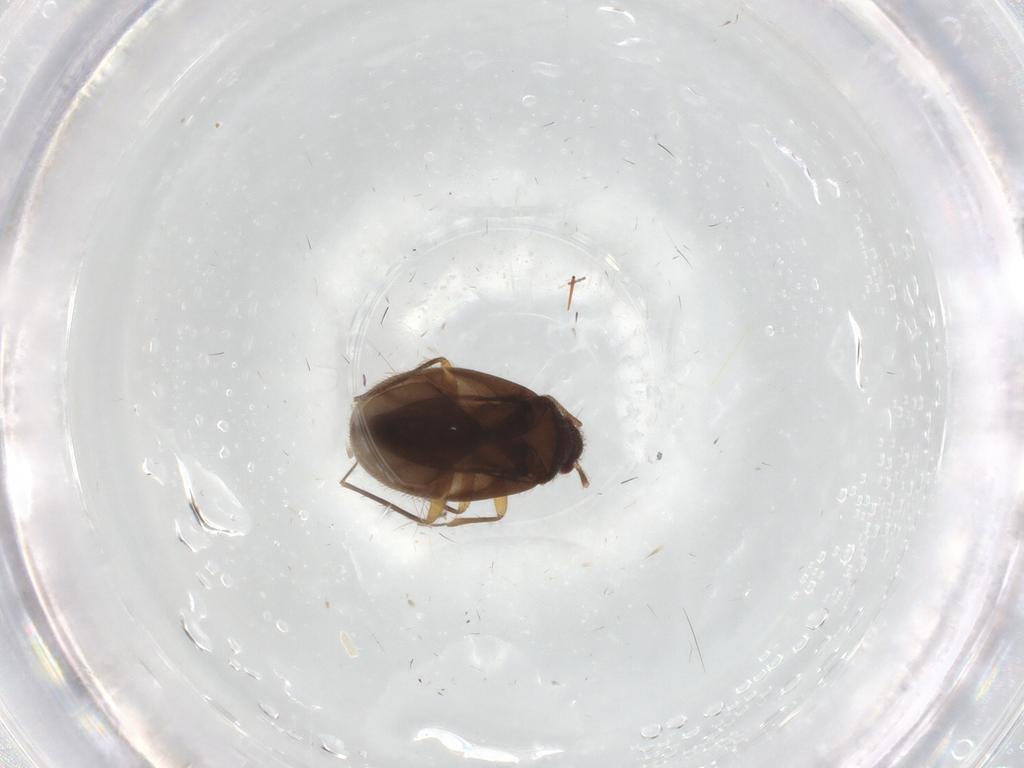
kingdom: Animalia
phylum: Arthropoda
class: Insecta
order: Hemiptera
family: Ceratocombidae
